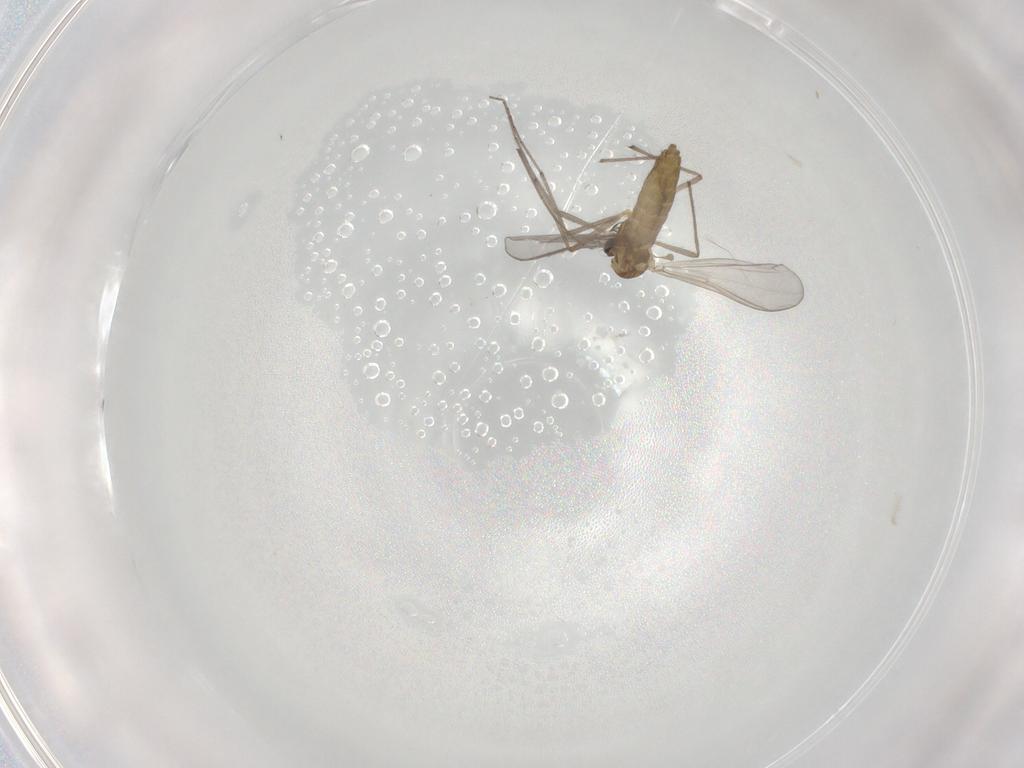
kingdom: Animalia
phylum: Arthropoda
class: Insecta
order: Diptera
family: Chironomidae
